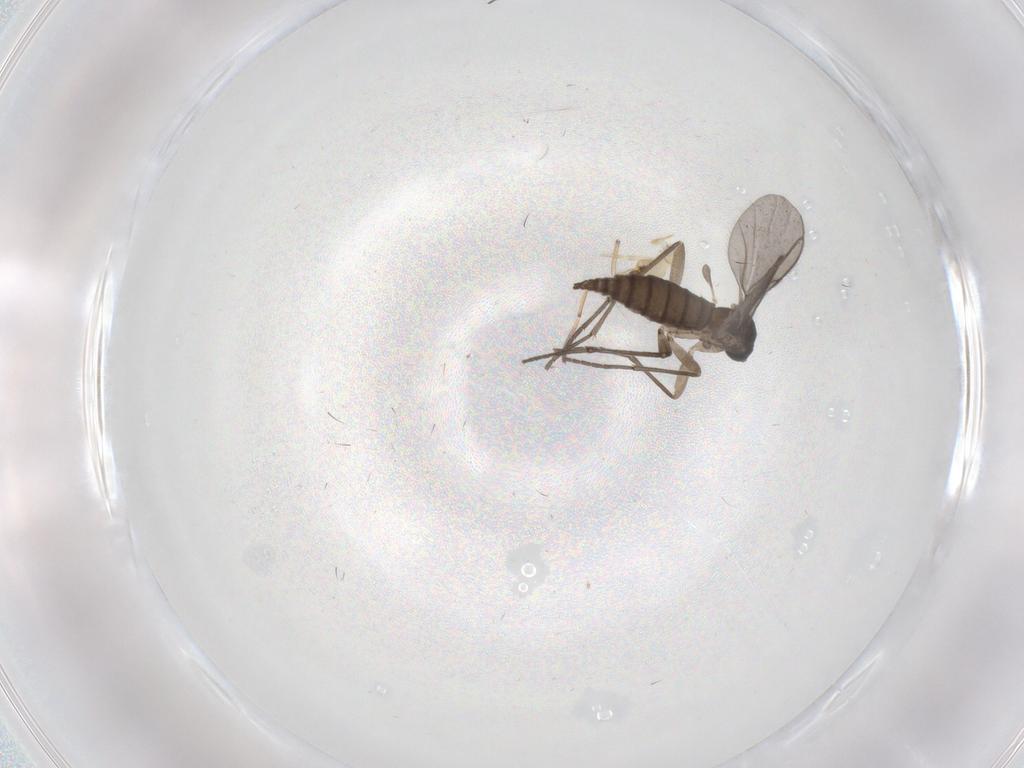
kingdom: Animalia
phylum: Arthropoda
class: Insecta
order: Diptera
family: Sciaridae
